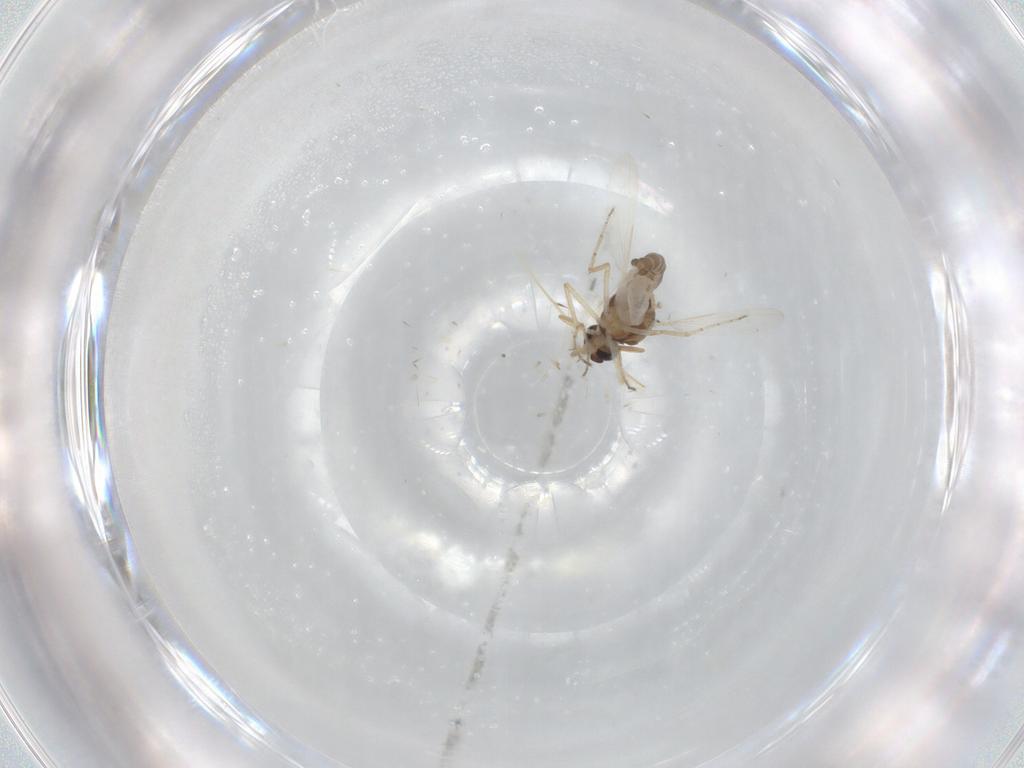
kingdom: Animalia
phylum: Arthropoda
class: Insecta
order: Diptera
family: Ceratopogonidae
